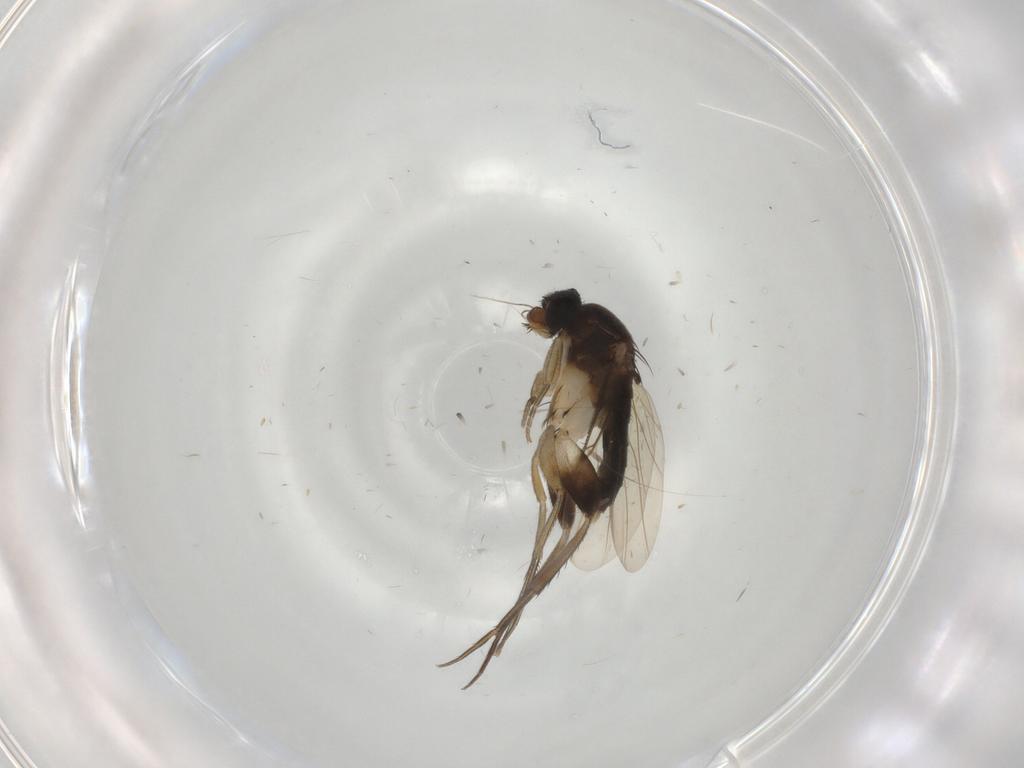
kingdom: Animalia
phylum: Arthropoda
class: Insecta
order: Diptera
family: Phoridae
